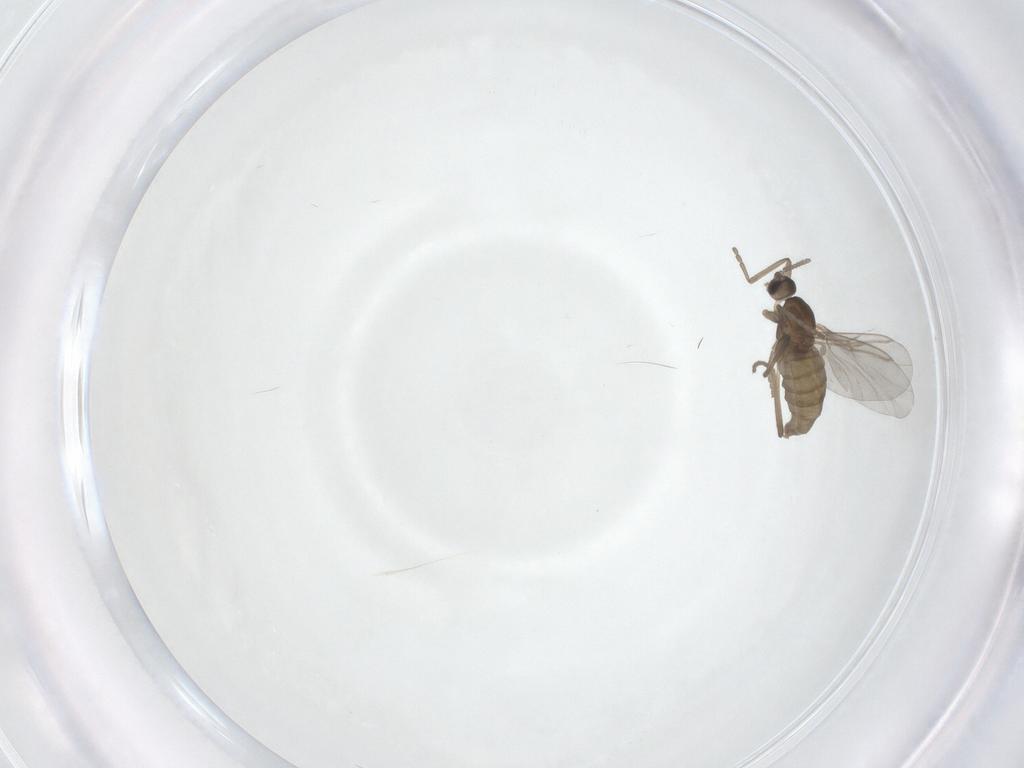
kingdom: Animalia
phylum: Arthropoda
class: Insecta
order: Diptera
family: Cecidomyiidae
